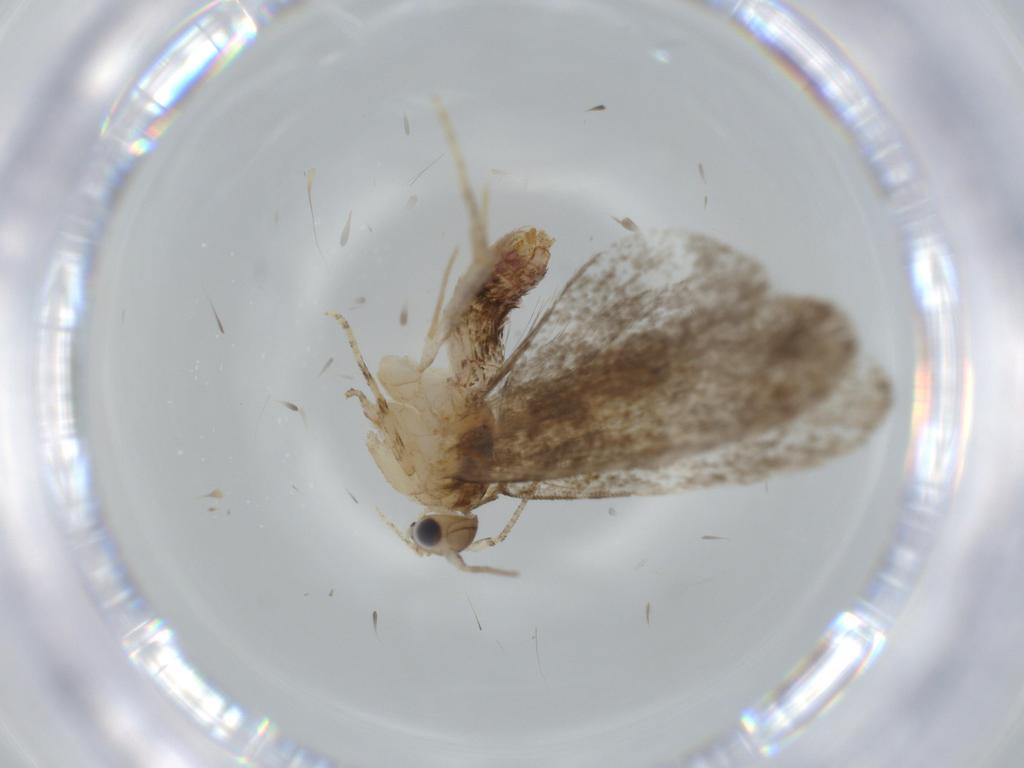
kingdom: Animalia
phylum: Arthropoda
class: Insecta
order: Lepidoptera
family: Tineidae
